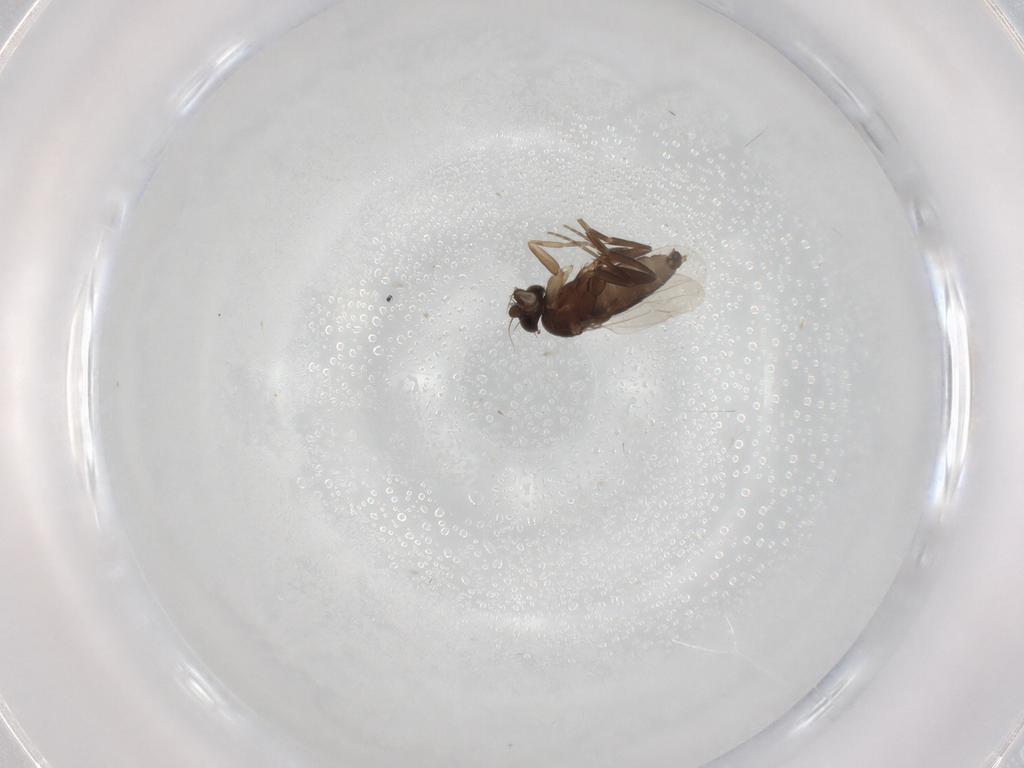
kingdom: Animalia
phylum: Arthropoda
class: Insecta
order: Diptera
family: Phoridae
